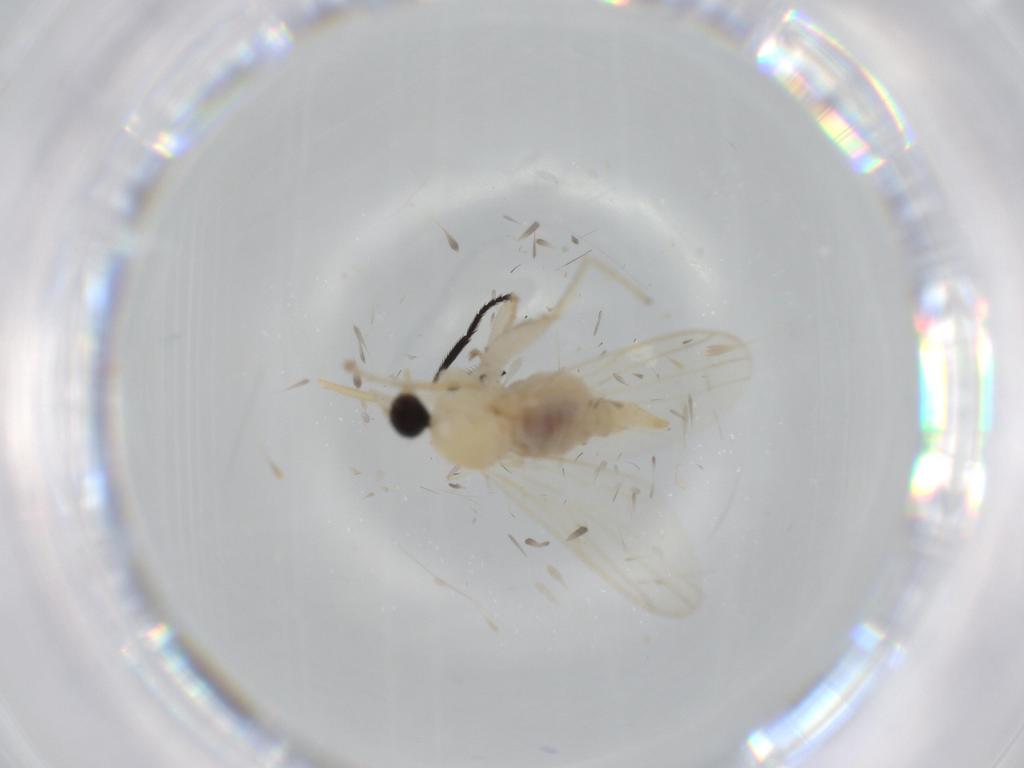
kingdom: Animalia
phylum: Arthropoda
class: Insecta
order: Diptera
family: Hybotidae
